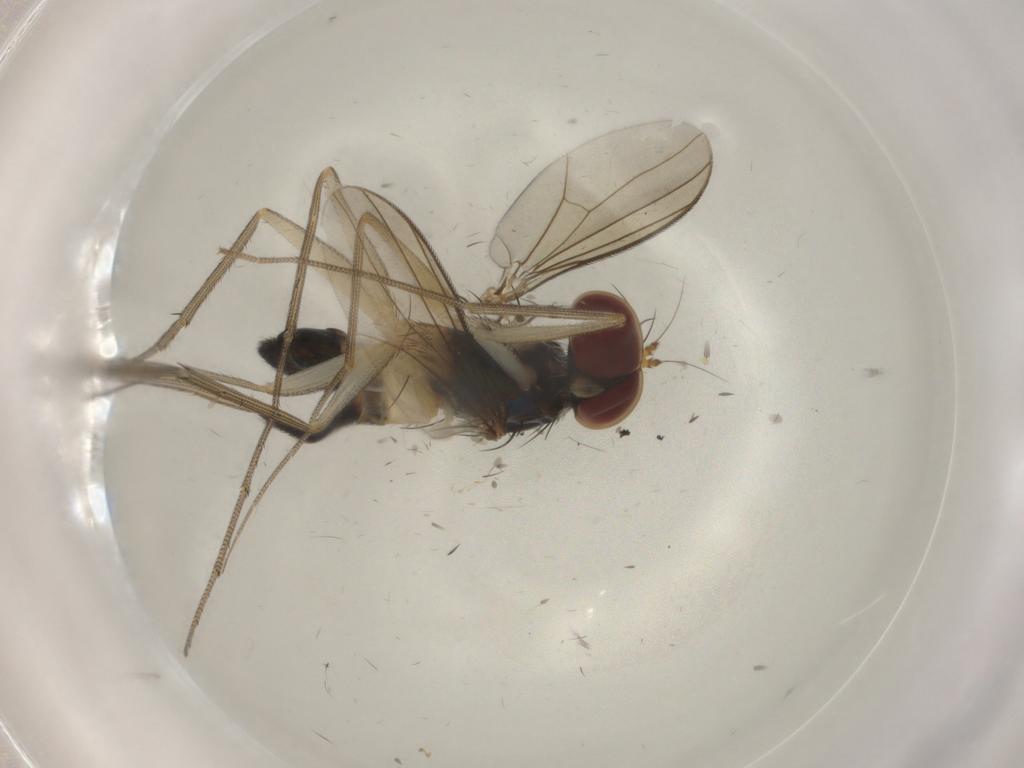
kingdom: Animalia
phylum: Arthropoda
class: Insecta
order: Diptera
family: Dolichopodidae
